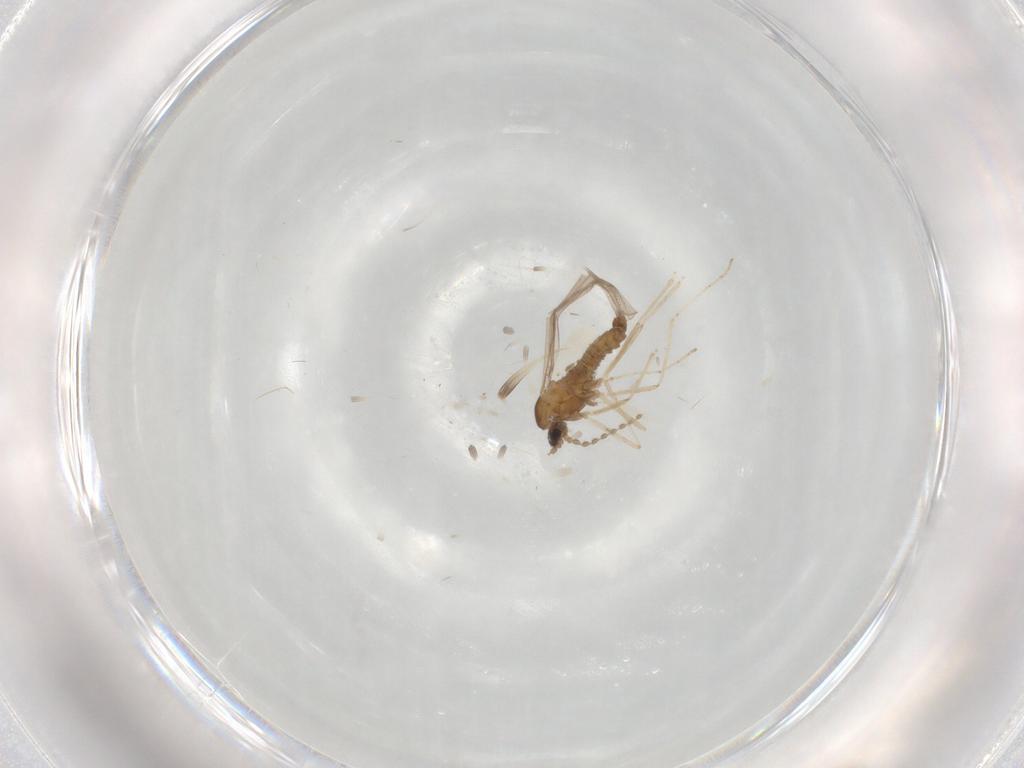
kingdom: Animalia
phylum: Arthropoda
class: Insecta
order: Diptera
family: Cecidomyiidae
